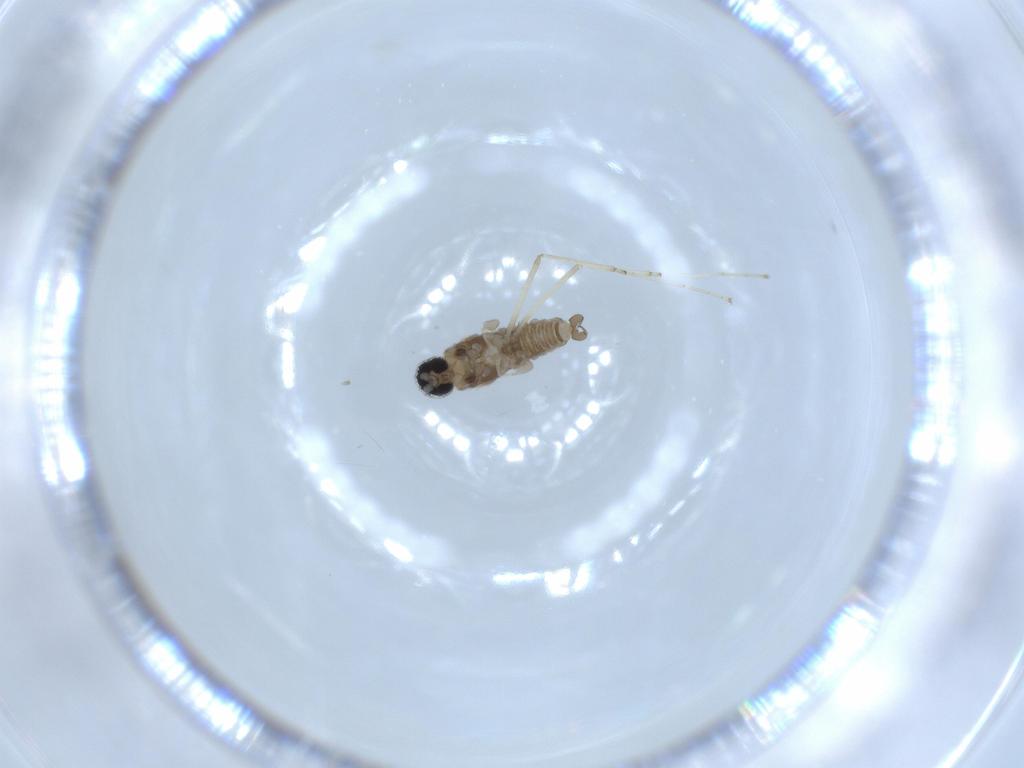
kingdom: Animalia
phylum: Arthropoda
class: Insecta
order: Diptera
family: Cecidomyiidae
